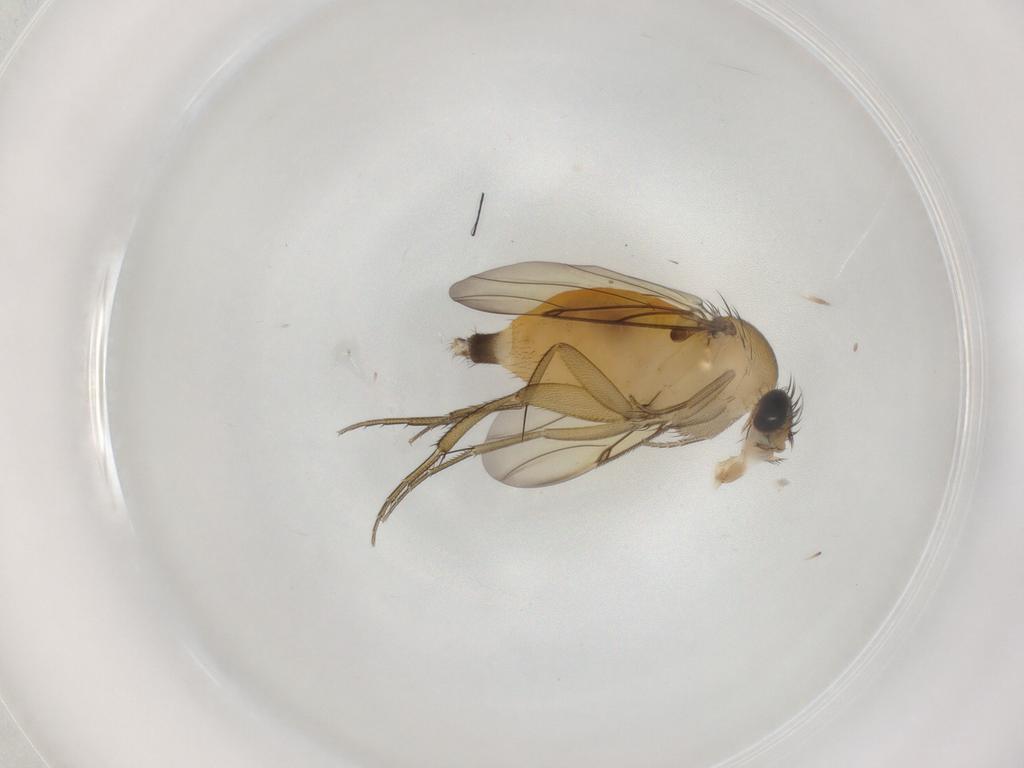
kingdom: Animalia
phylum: Arthropoda
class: Insecta
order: Diptera
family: Phoridae
